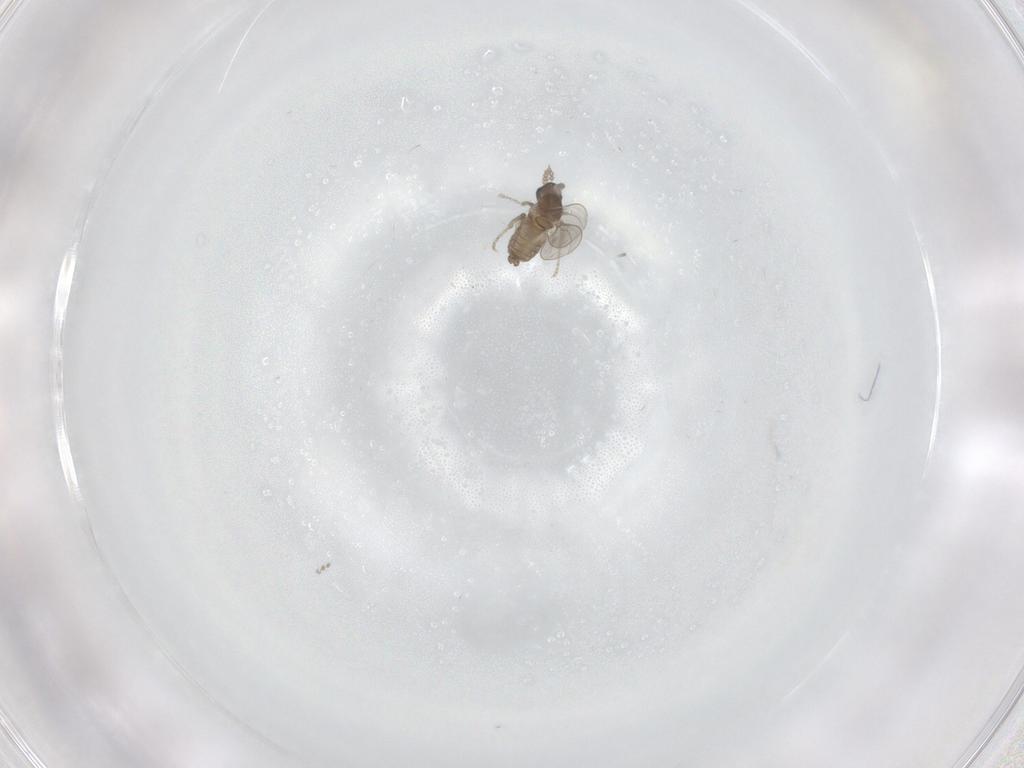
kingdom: Animalia
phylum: Arthropoda
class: Insecta
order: Diptera
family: Cecidomyiidae
